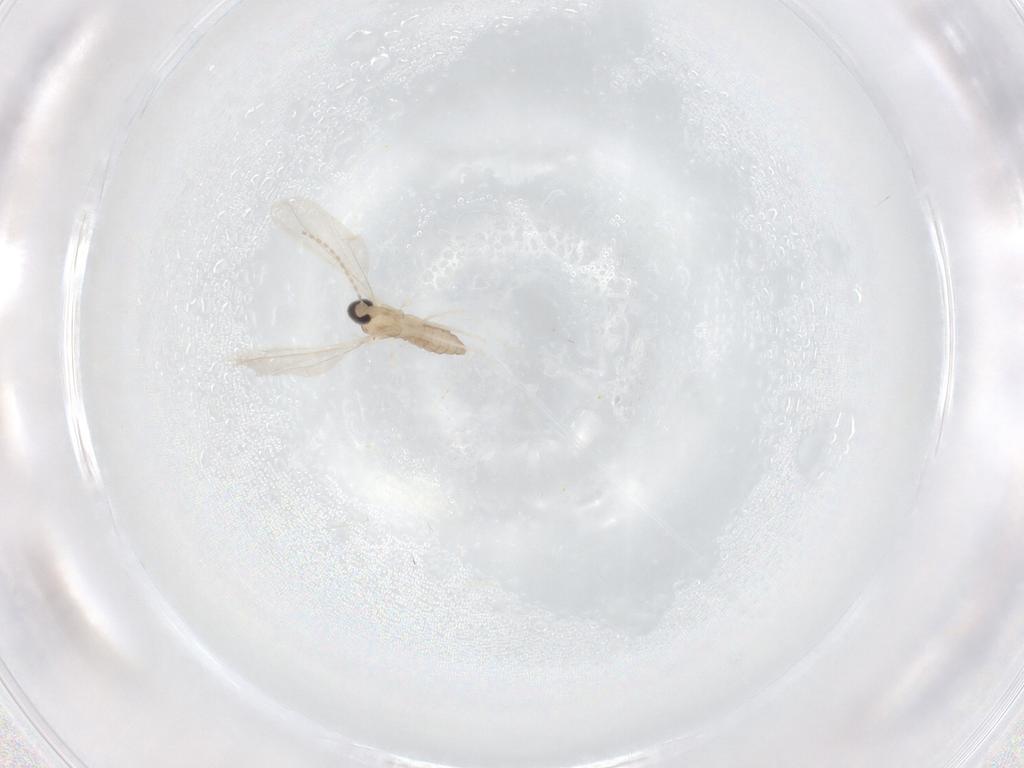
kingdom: Animalia
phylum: Arthropoda
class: Insecta
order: Diptera
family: Cecidomyiidae
